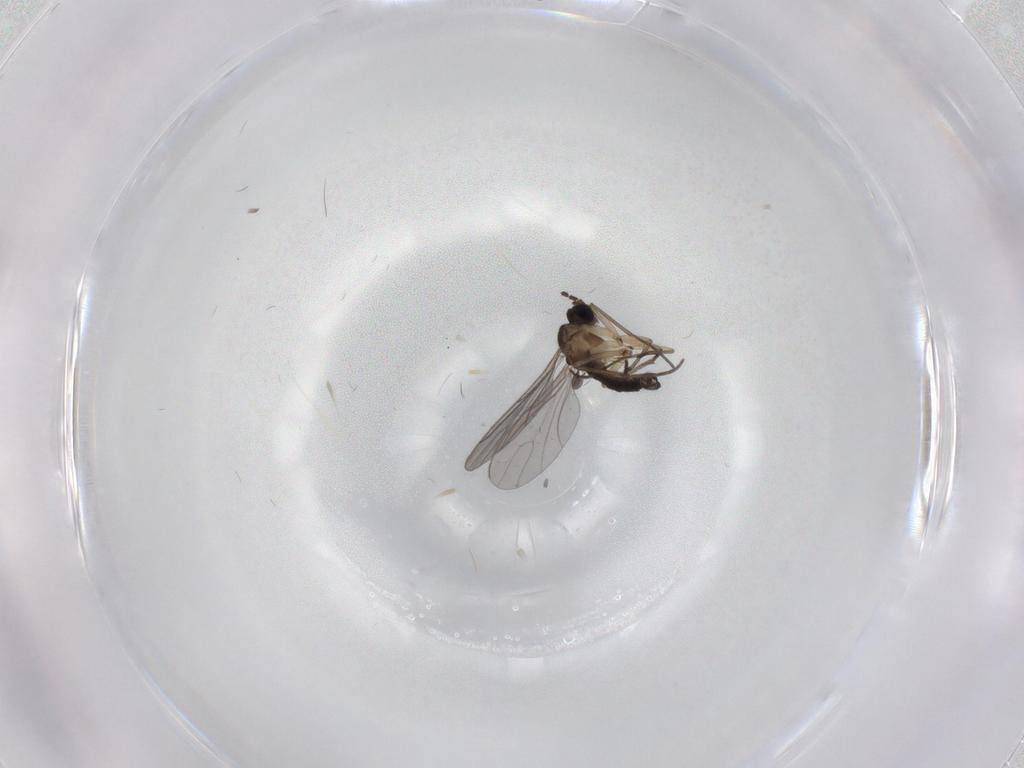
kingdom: Animalia
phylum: Arthropoda
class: Insecta
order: Diptera
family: Sciaridae
